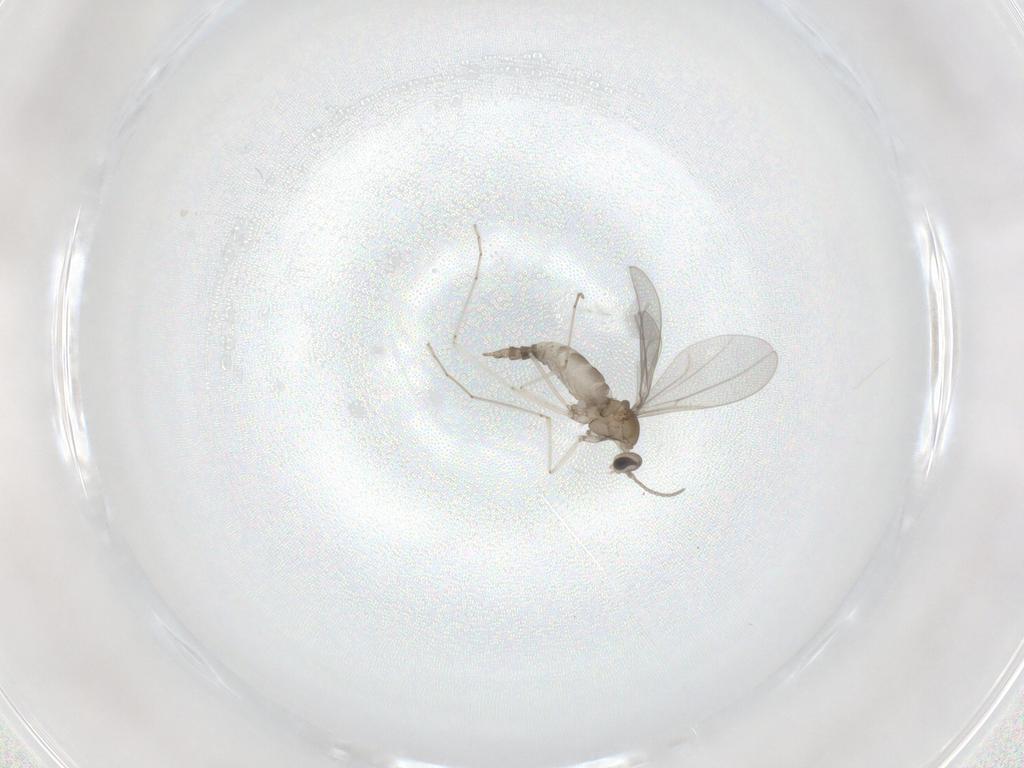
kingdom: Animalia
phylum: Arthropoda
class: Insecta
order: Diptera
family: Cecidomyiidae
